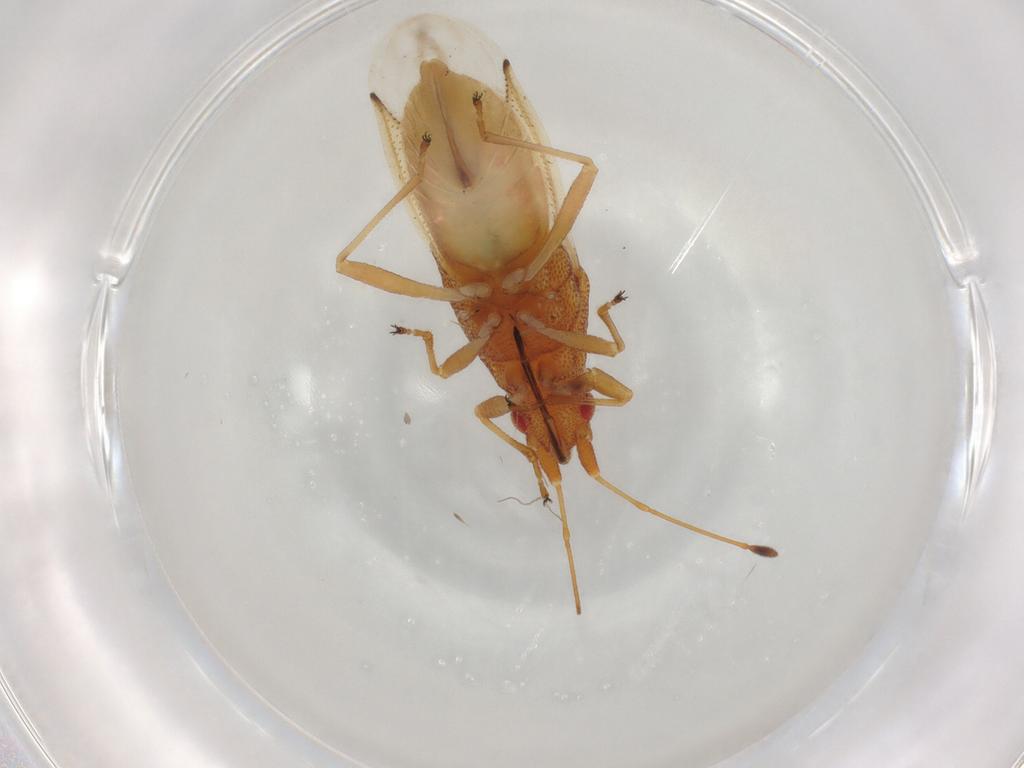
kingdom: Animalia
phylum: Arthropoda
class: Insecta
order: Hemiptera
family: Cymidae
